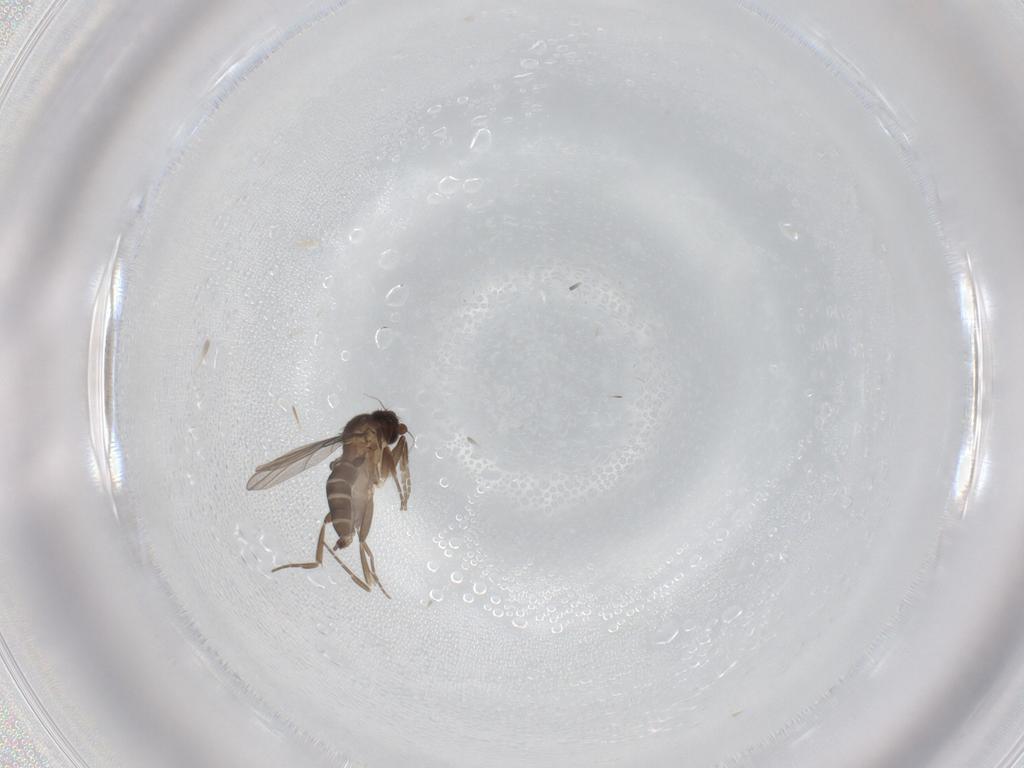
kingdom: Animalia
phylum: Arthropoda
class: Insecta
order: Diptera
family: Phoridae
